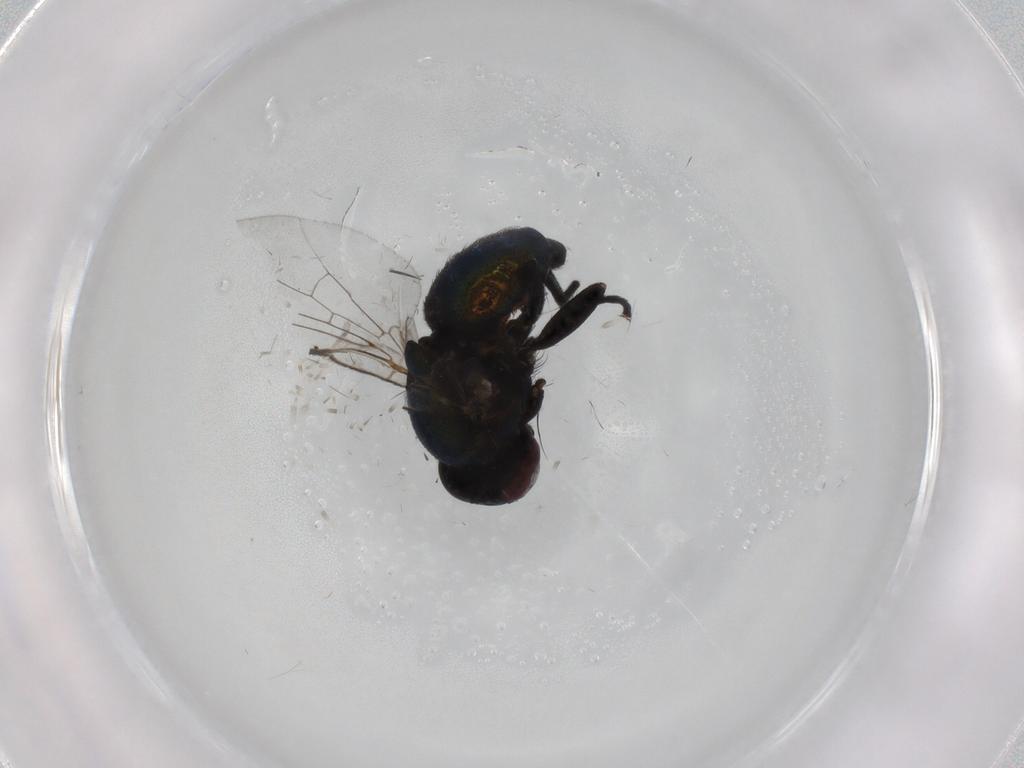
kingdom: Animalia
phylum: Arthropoda
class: Insecta
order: Diptera
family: Agromyzidae
